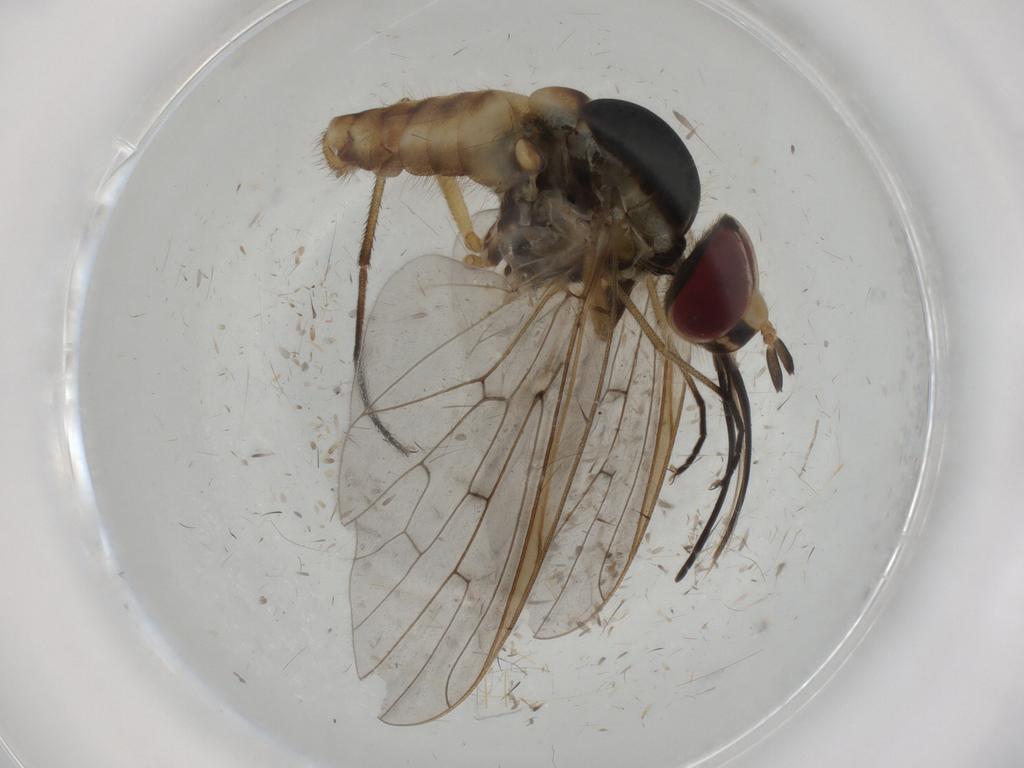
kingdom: Animalia
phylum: Arthropoda
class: Insecta
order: Diptera
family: Bombyliidae
